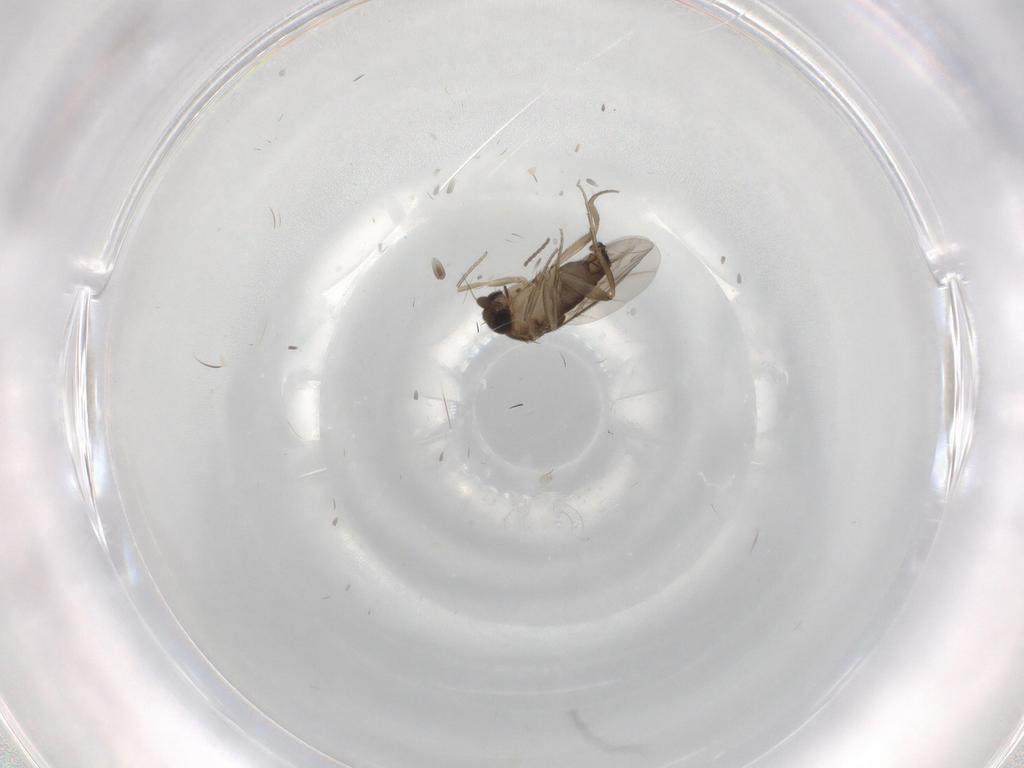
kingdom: Animalia
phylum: Arthropoda
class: Insecta
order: Diptera
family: Phoridae
